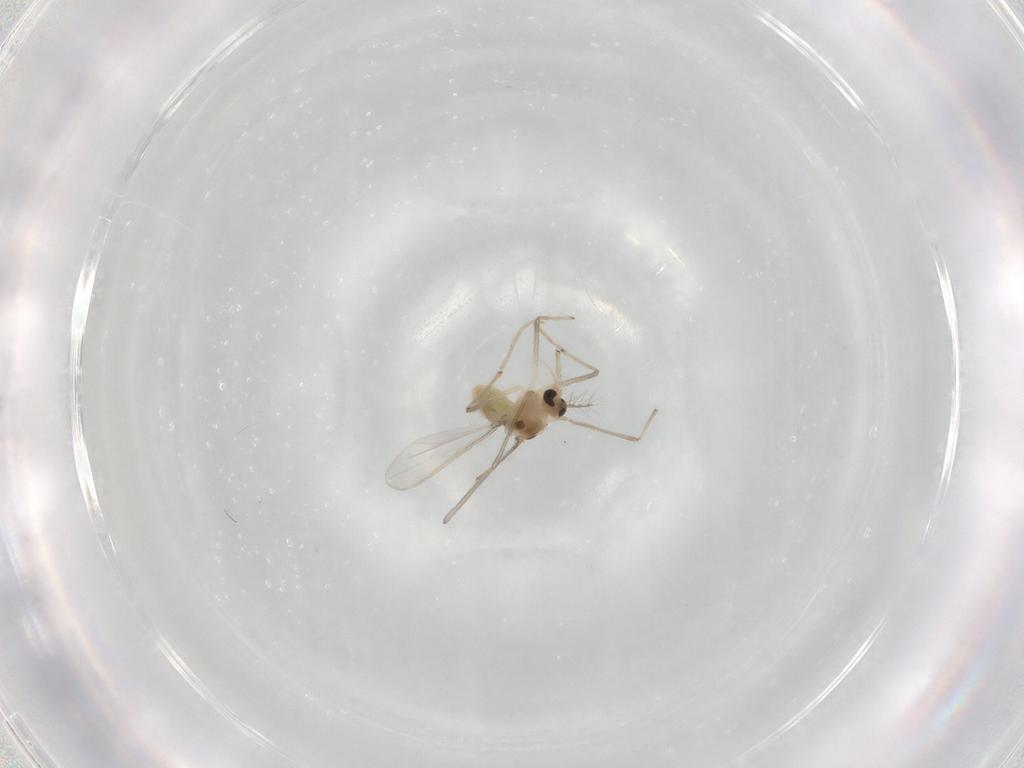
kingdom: Animalia
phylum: Arthropoda
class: Insecta
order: Diptera
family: Chironomidae
